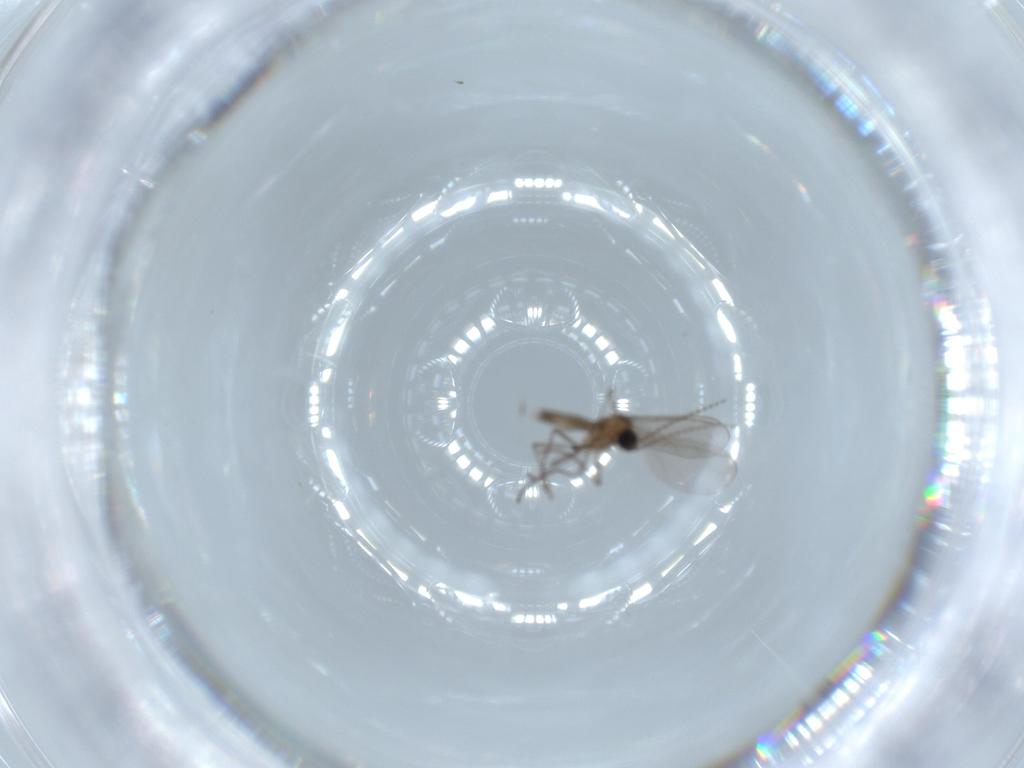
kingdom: Animalia
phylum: Arthropoda
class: Insecta
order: Diptera
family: Sciaridae
